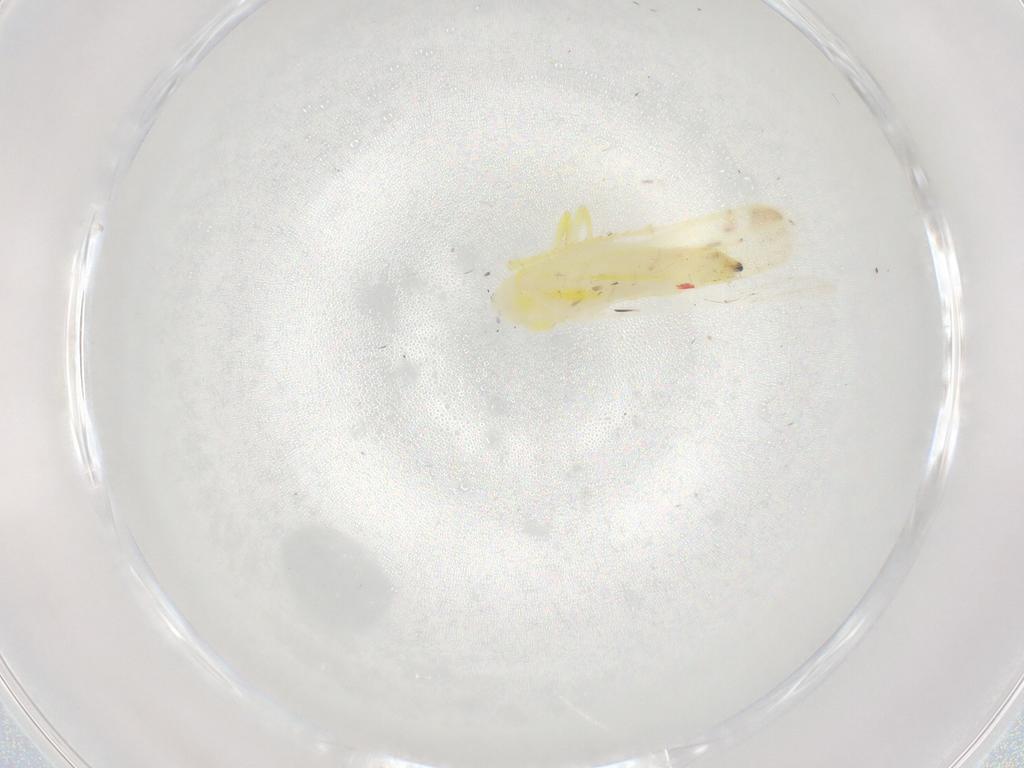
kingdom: Animalia
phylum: Arthropoda
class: Insecta
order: Hemiptera
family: Cicadellidae
